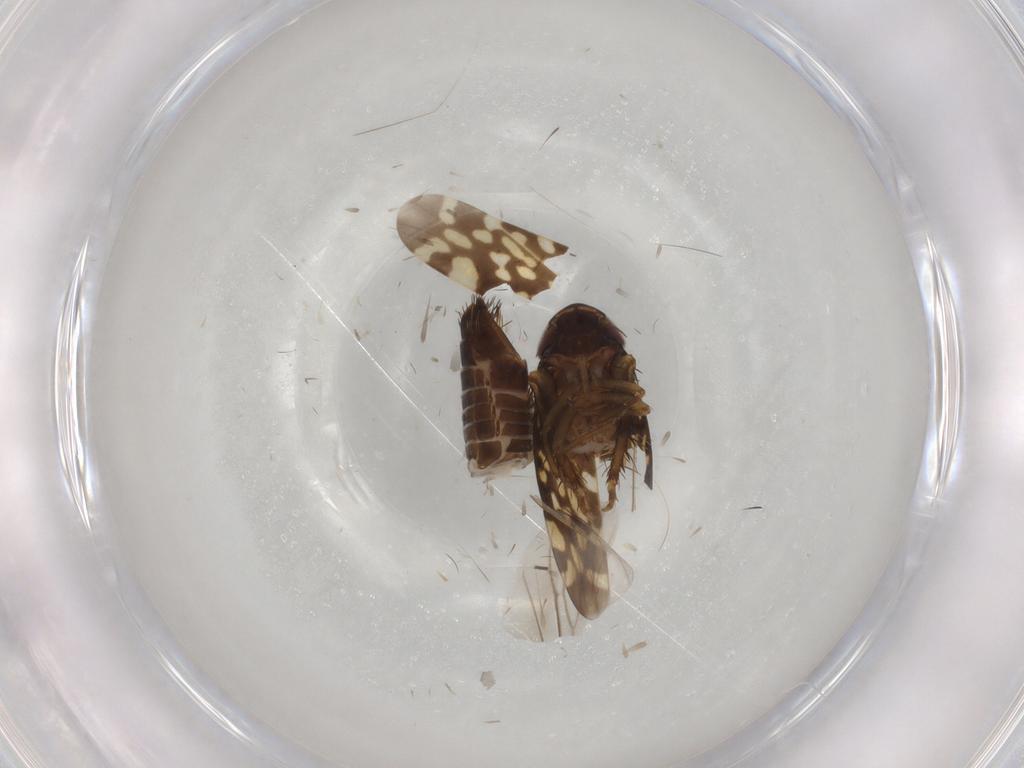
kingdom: Animalia
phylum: Arthropoda
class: Insecta
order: Hemiptera
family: Cicadellidae
